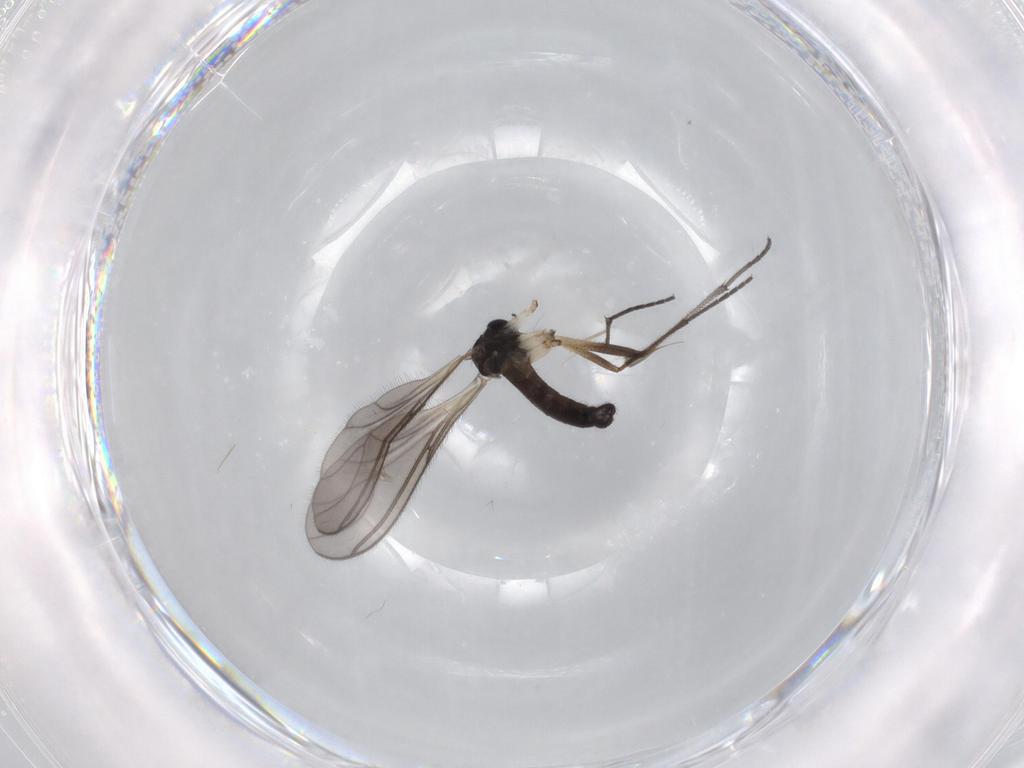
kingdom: Animalia
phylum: Arthropoda
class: Insecta
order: Diptera
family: Sciaridae
